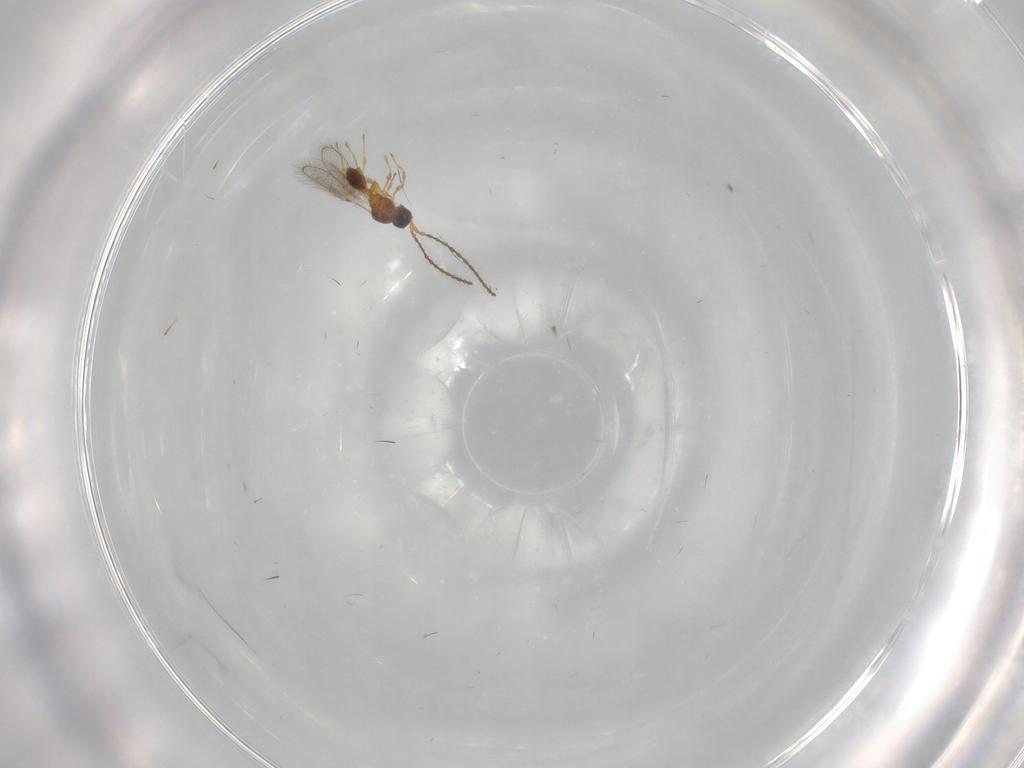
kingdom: Animalia
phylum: Arthropoda
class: Insecta
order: Hymenoptera
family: Diapriidae
